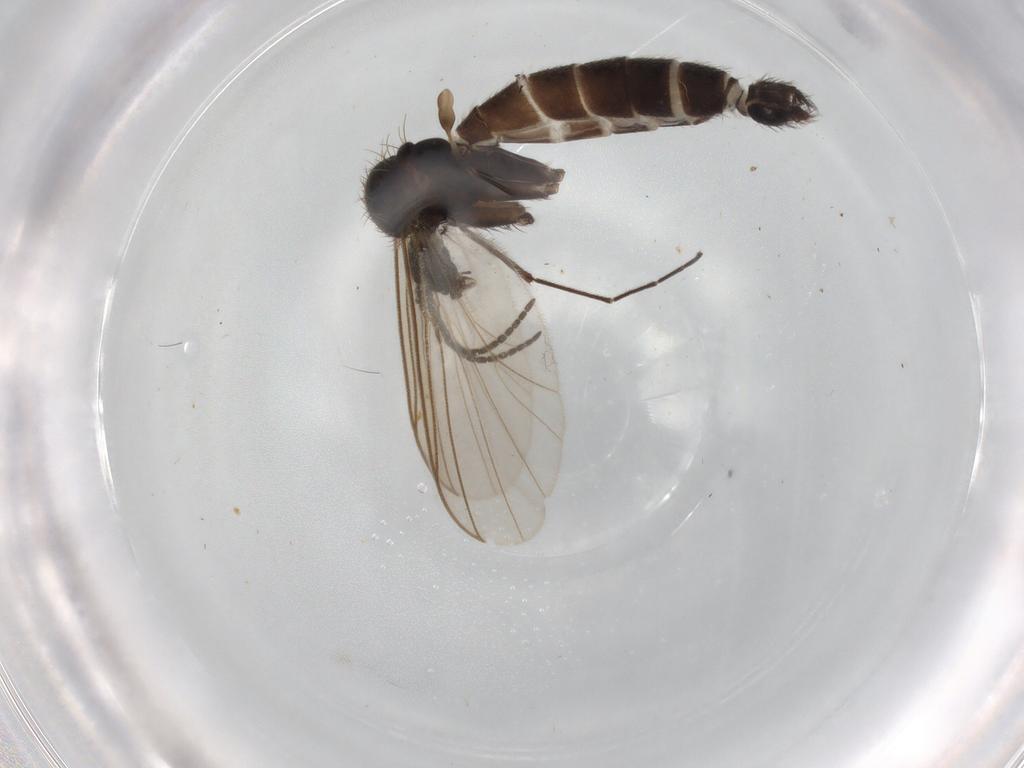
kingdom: Animalia
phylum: Arthropoda
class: Insecta
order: Diptera
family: Mycetophilidae
